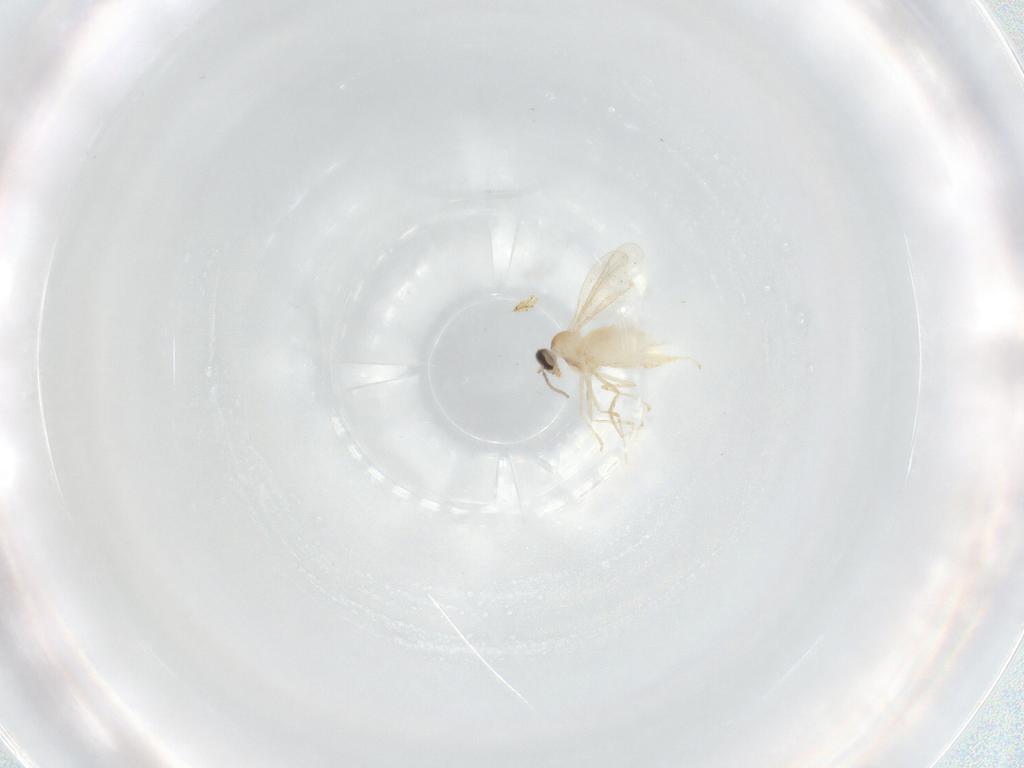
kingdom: Animalia
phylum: Arthropoda
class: Insecta
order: Diptera
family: Cecidomyiidae
